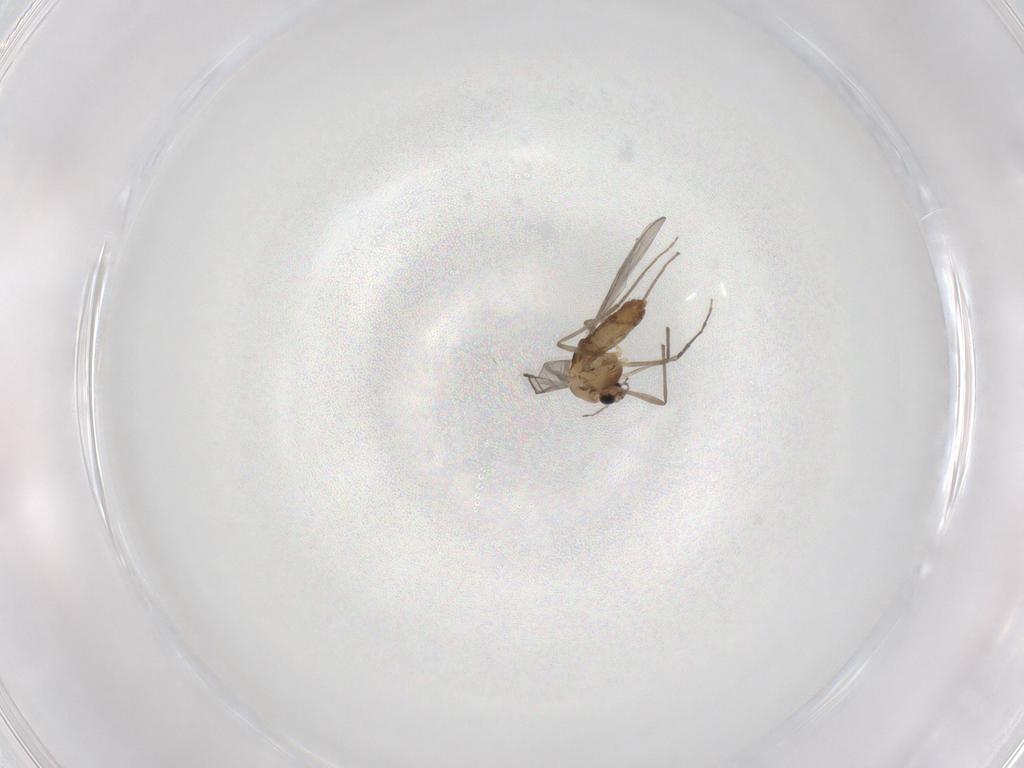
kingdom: Animalia
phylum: Arthropoda
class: Insecta
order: Diptera
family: Chironomidae
